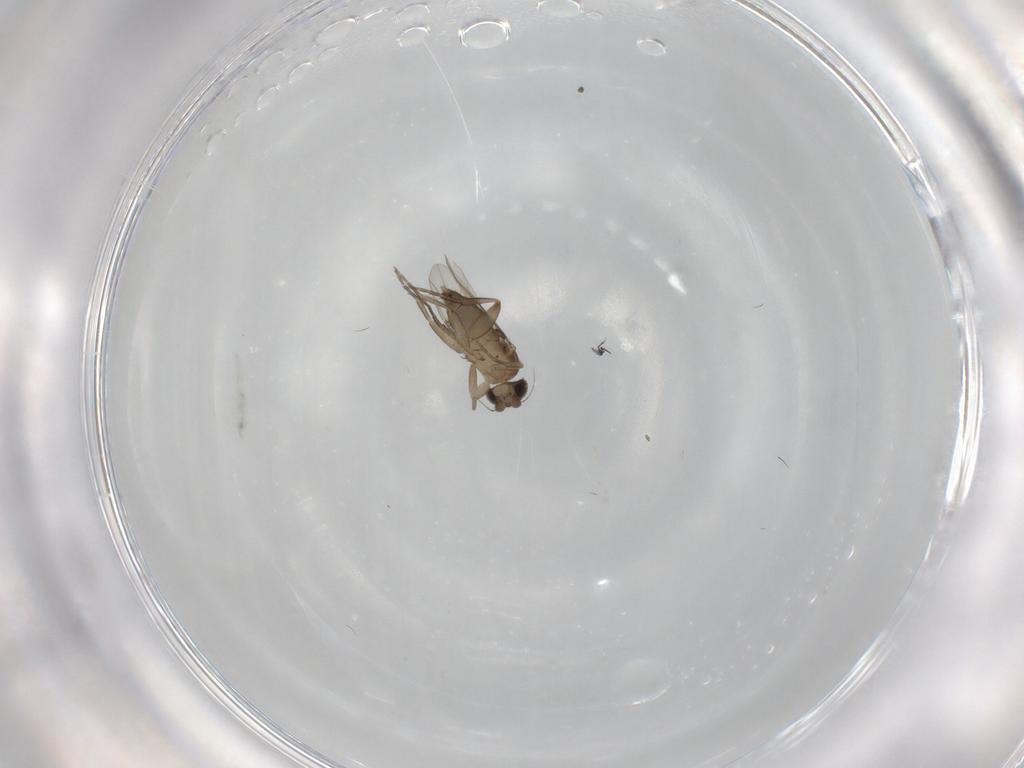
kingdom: Animalia
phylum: Arthropoda
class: Insecta
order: Diptera
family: Phoridae
